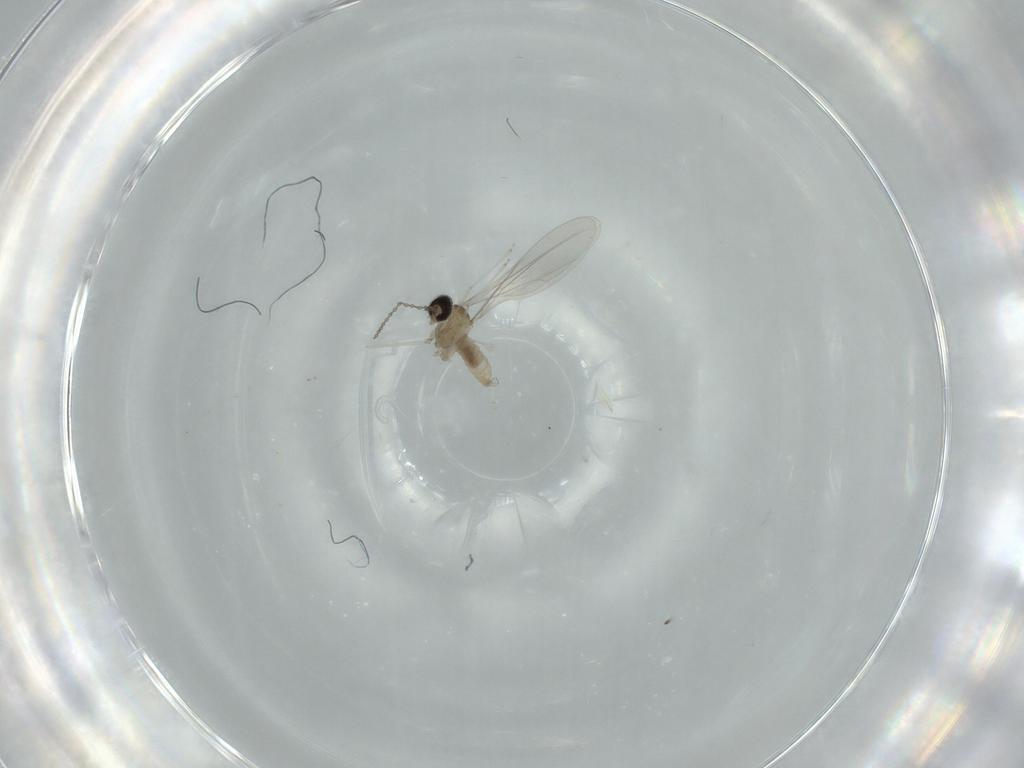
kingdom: Animalia
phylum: Arthropoda
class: Insecta
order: Diptera
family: Cecidomyiidae
